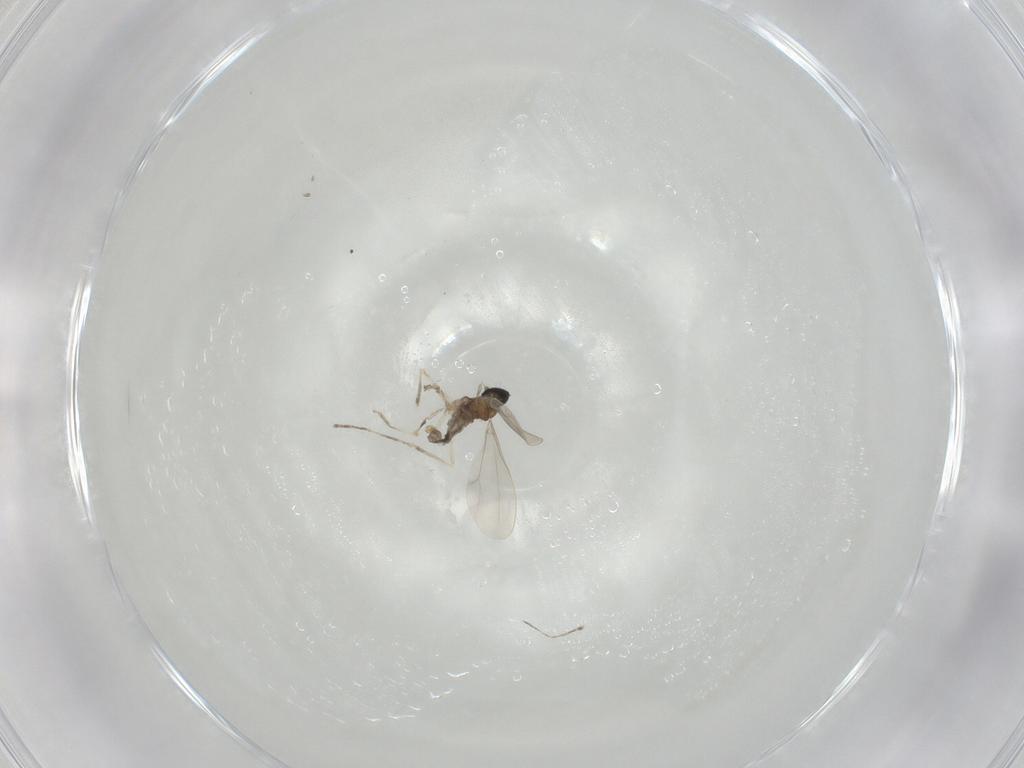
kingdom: Animalia
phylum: Arthropoda
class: Insecta
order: Diptera
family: Cecidomyiidae
